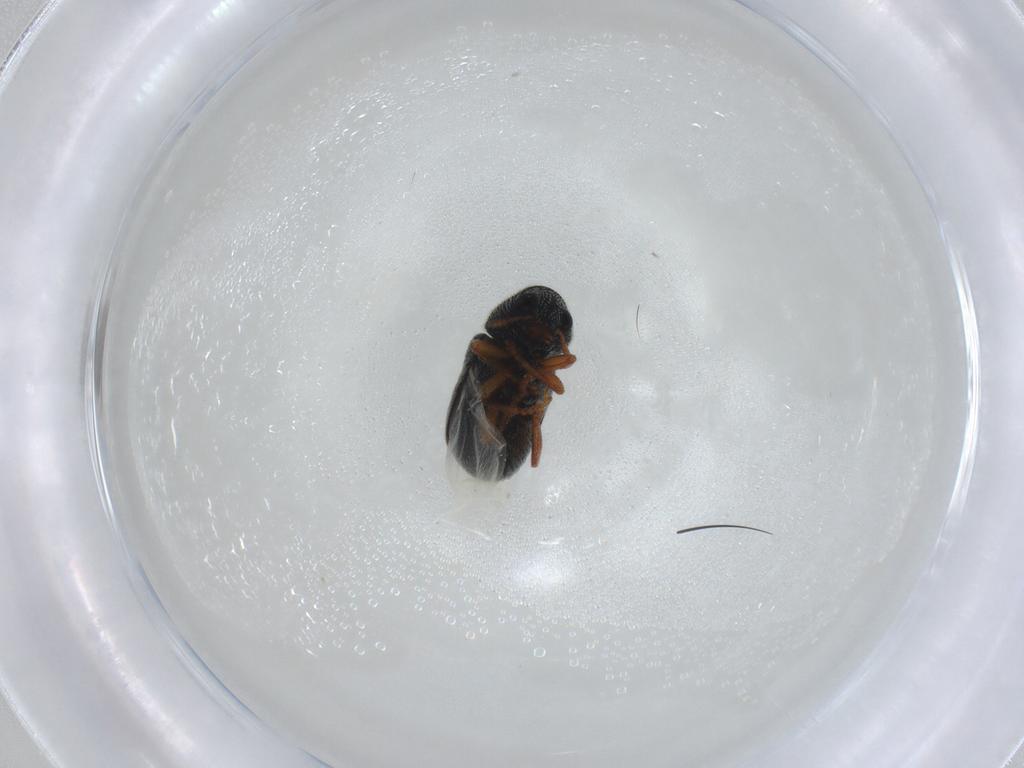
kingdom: Animalia
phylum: Arthropoda
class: Insecta
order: Coleoptera
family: Anthribidae
